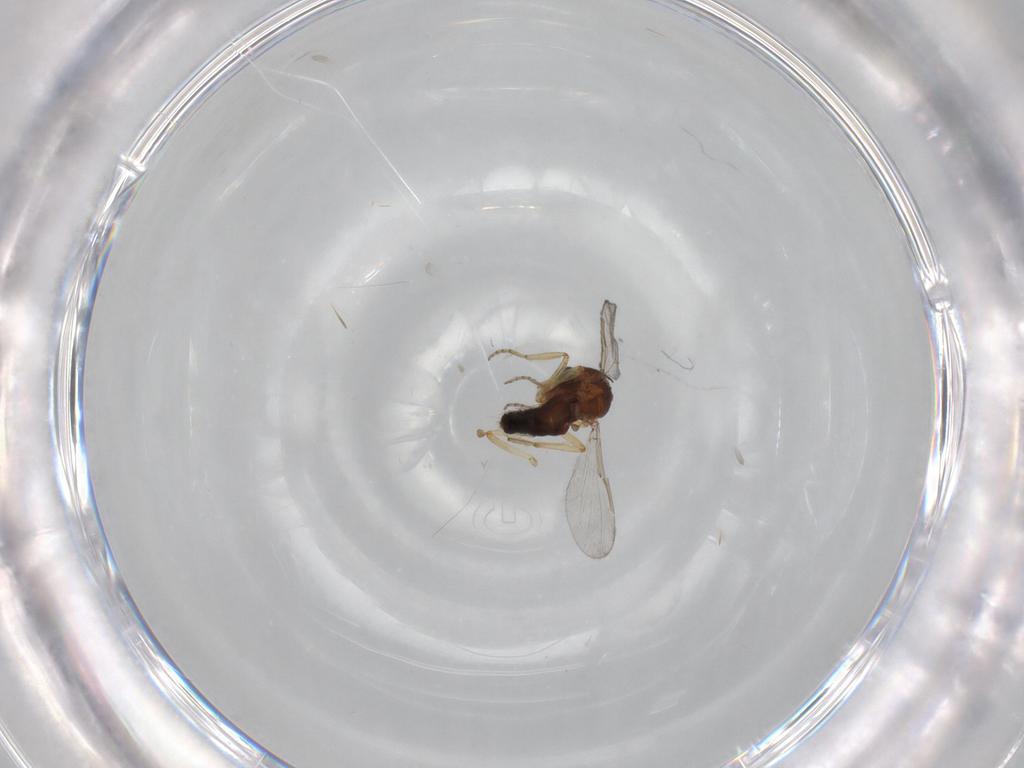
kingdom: Animalia
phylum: Arthropoda
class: Insecta
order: Diptera
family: Ceratopogonidae
